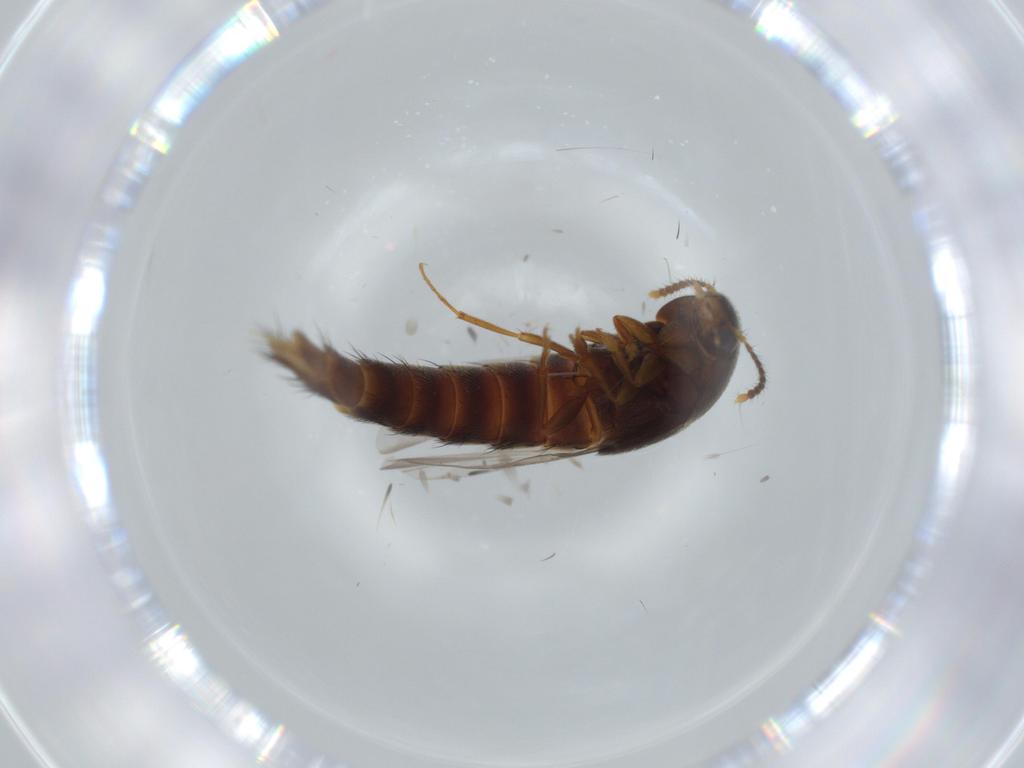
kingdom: Animalia
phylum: Arthropoda
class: Insecta
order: Coleoptera
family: Staphylinidae
